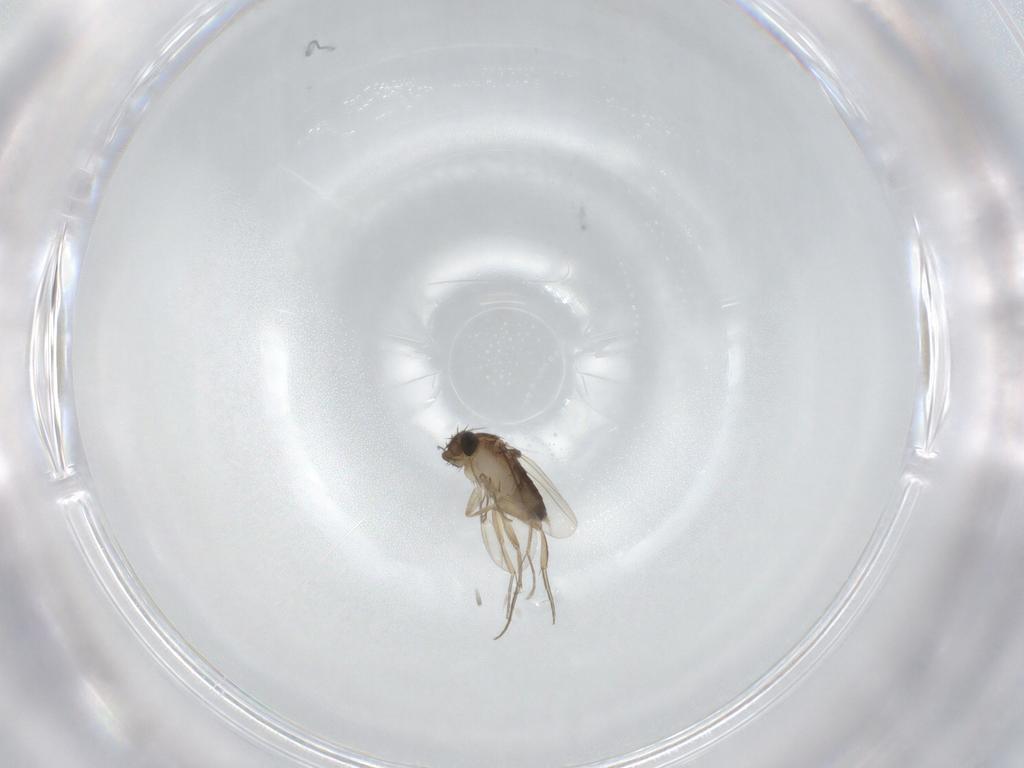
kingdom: Animalia
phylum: Arthropoda
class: Insecta
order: Diptera
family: Phoridae
